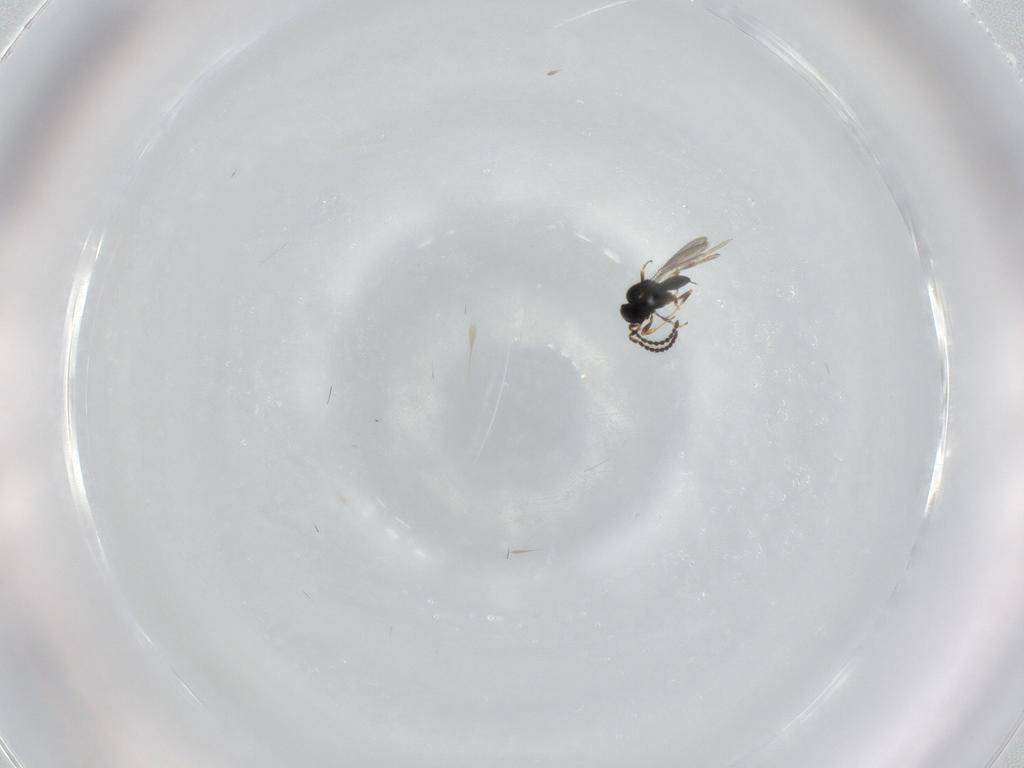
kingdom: Animalia
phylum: Arthropoda
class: Insecta
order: Hymenoptera
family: Scelionidae
